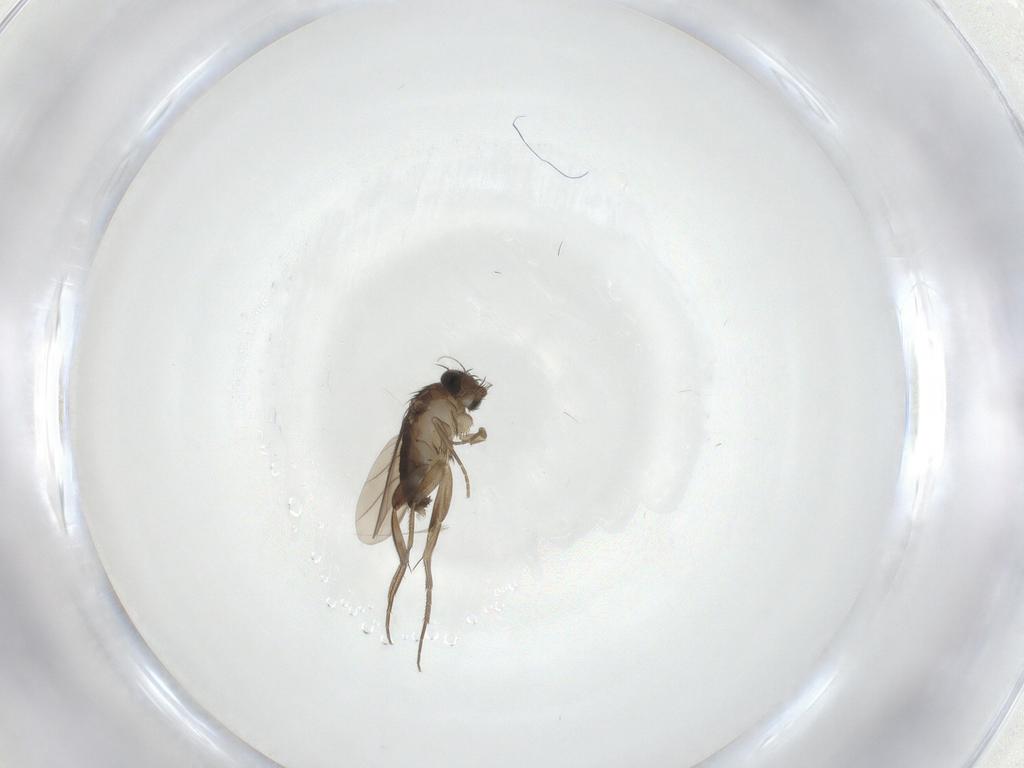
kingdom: Animalia
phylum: Arthropoda
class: Insecta
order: Diptera
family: Phoridae
